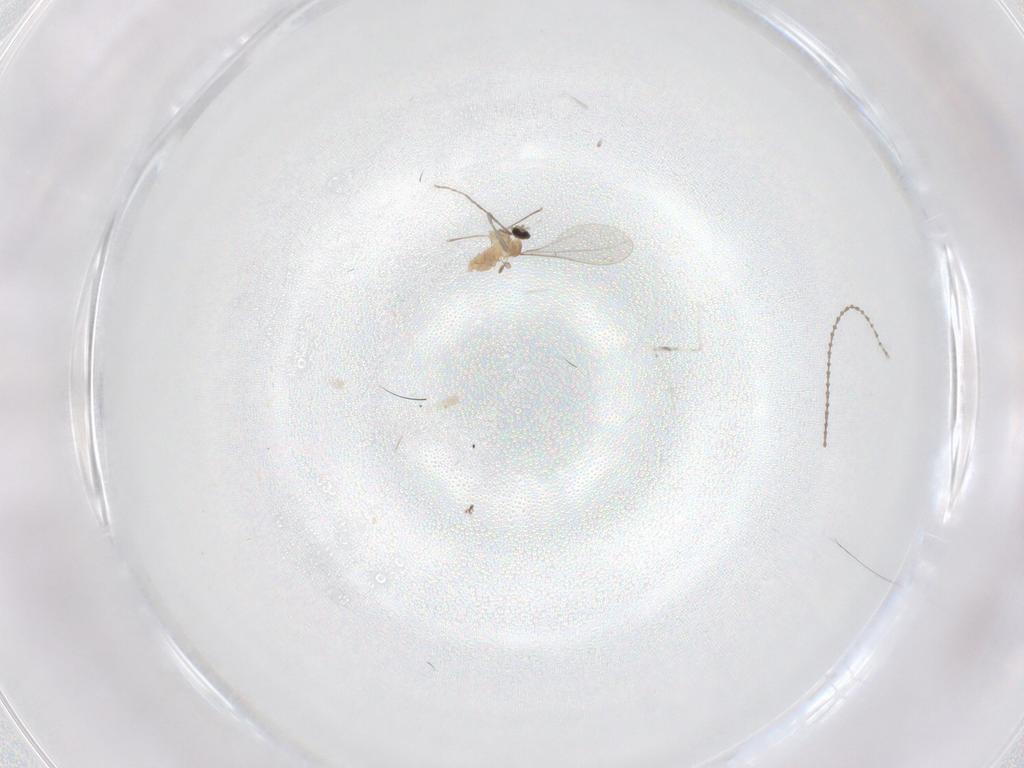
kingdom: Animalia
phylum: Arthropoda
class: Insecta
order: Diptera
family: Cecidomyiidae
